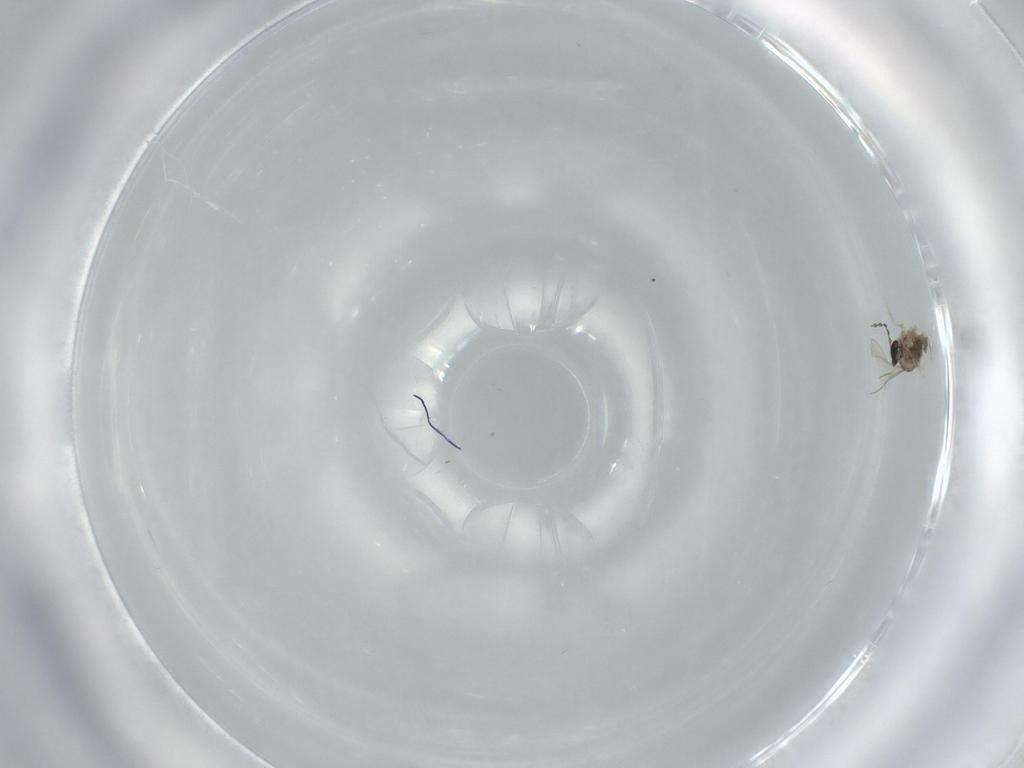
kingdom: Animalia
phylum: Arthropoda
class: Insecta
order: Diptera
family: Cecidomyiidae
